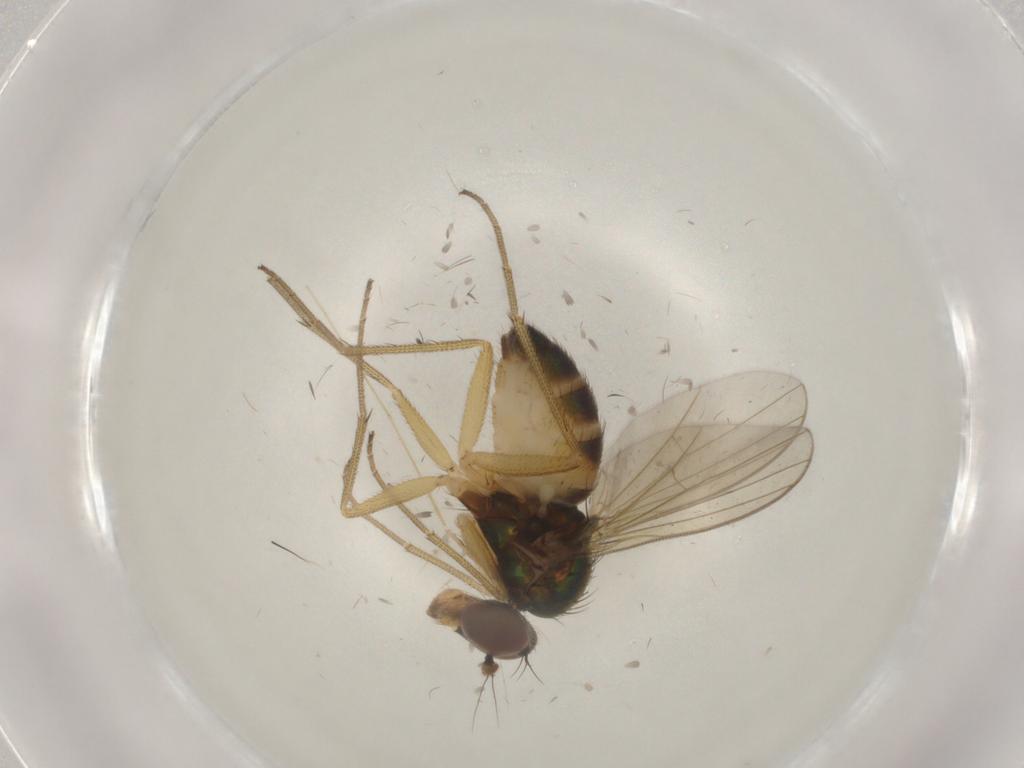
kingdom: Animalia
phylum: Arthropoda
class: Insecta
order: Diptera
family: Dolichopodidae
